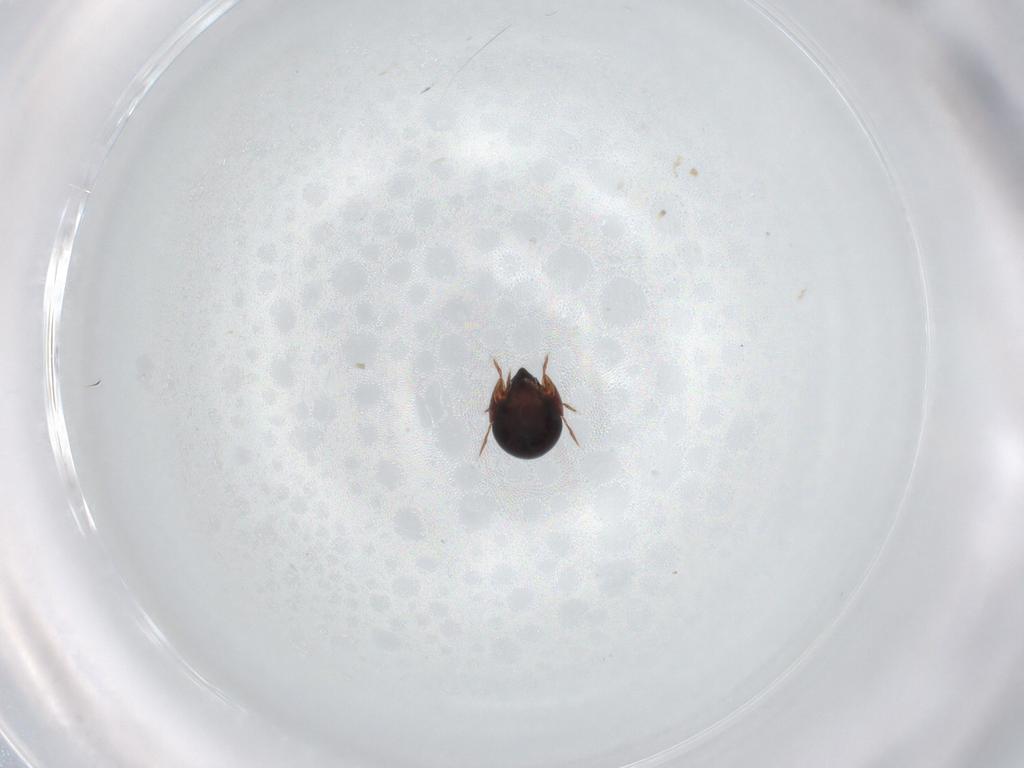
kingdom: Animalia
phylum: Arthropoda
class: Arachnida
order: Sarcoptiformes
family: Ceratozetidae
